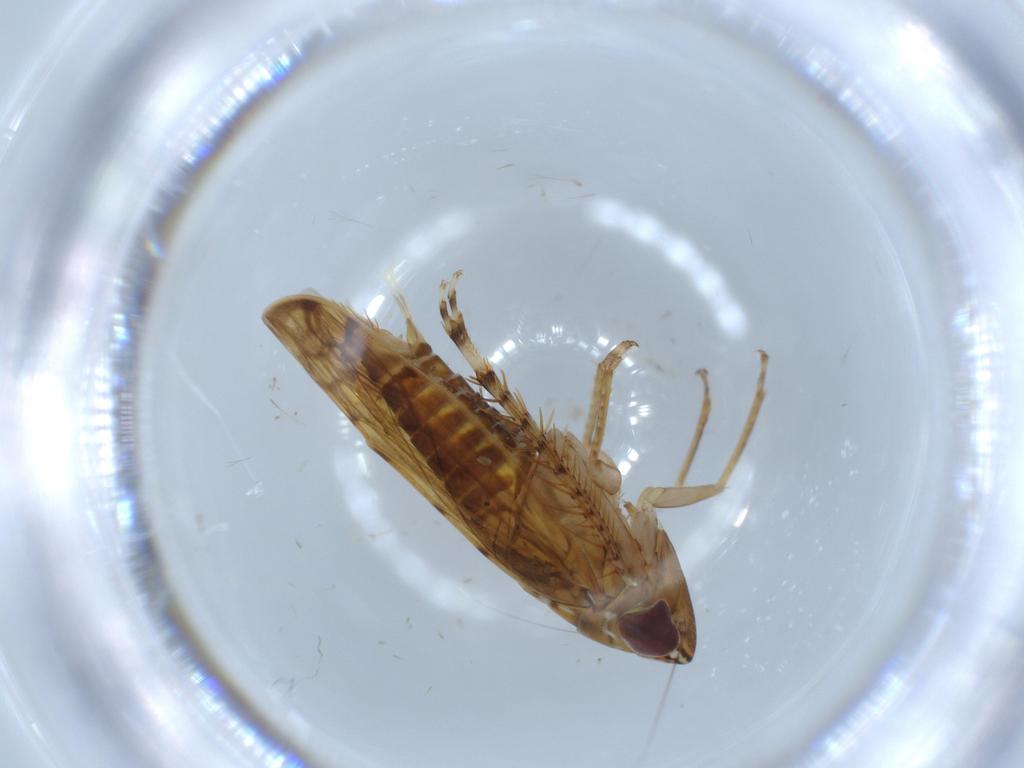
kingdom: Animalia
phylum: Arthropoda
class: Insecta
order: Hemiptera
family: Cicadellidae
